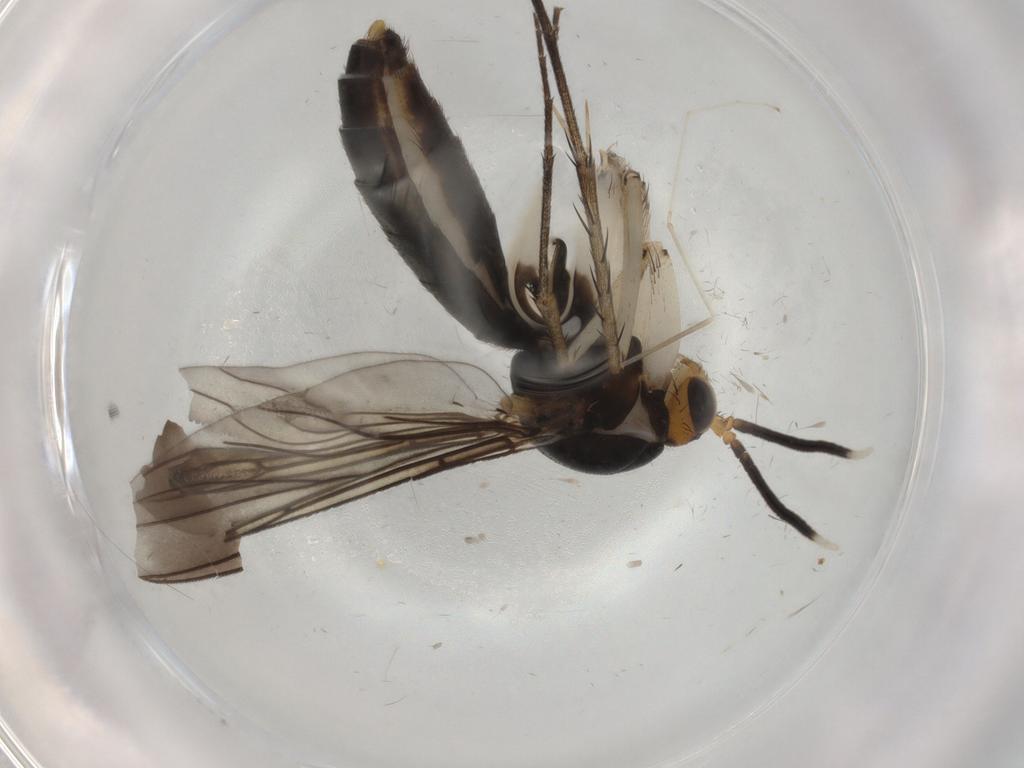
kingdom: Animalia
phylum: Arthropoda
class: Insecta
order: Diptera
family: Mycetophilidae
